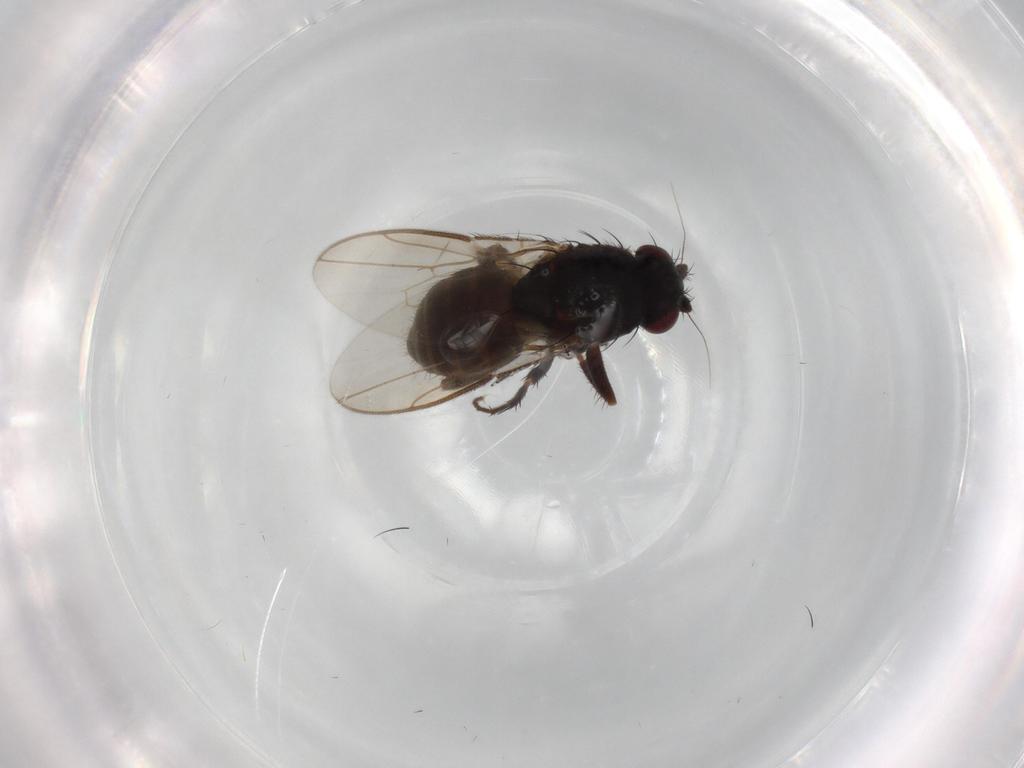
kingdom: Animalia
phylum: Arthropoda
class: Insecta
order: Diptera
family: Sphaeroceridae
